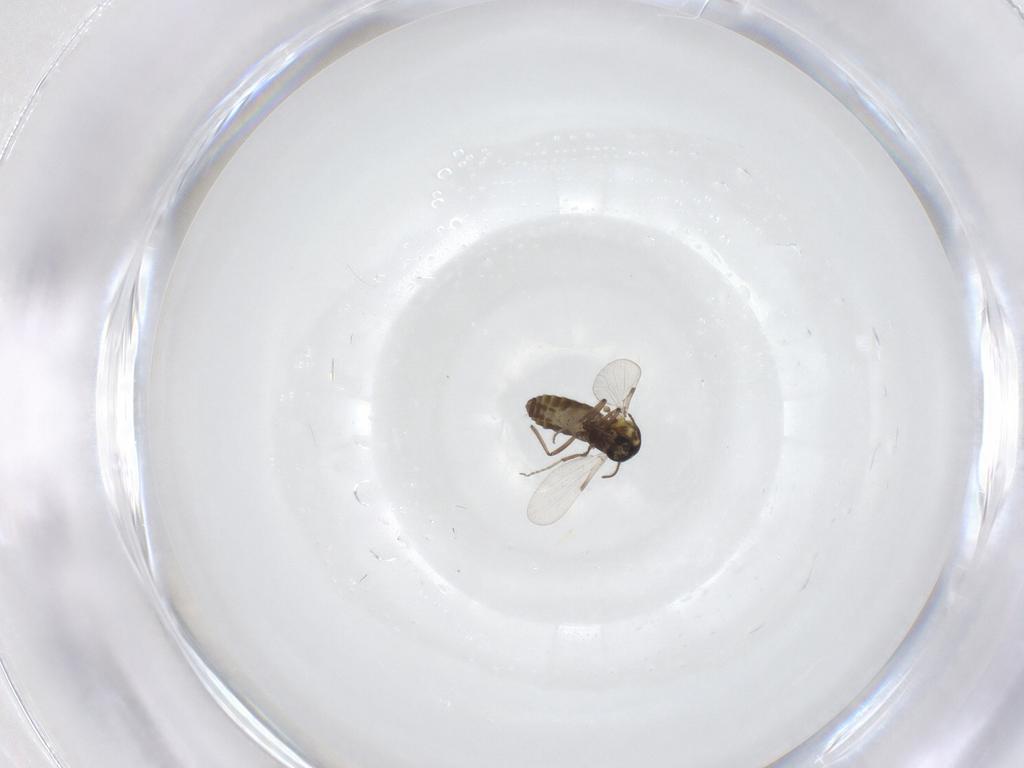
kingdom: Animalia
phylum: Arthropoda
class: Insecta
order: Diptera
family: Ceratopogonidae
